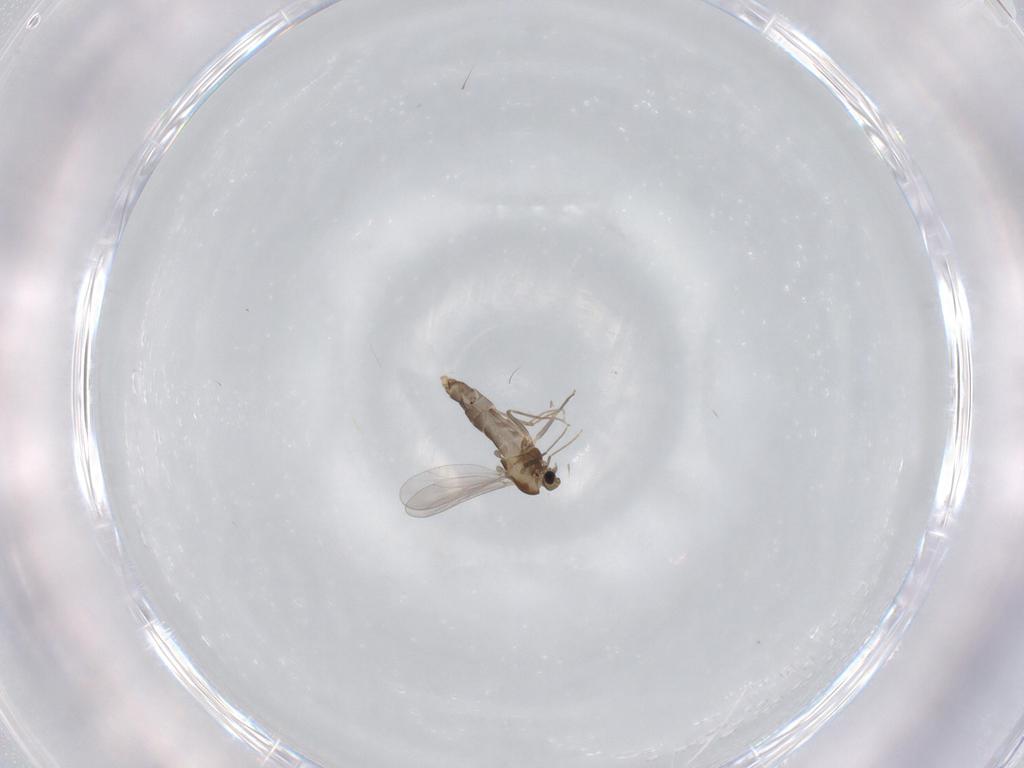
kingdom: Animalia
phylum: Arthropoda
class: Insecta
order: Diptera
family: Chironomidae
